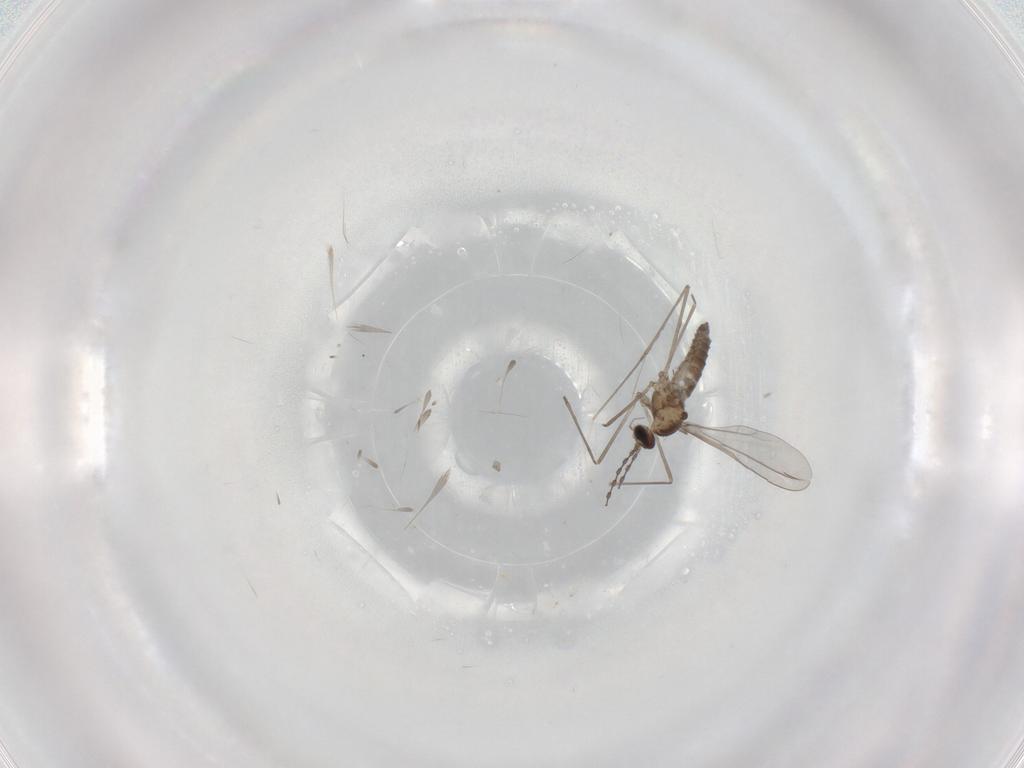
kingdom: Animalia
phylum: Arthropoda
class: Insecta
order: Diptera
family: Cecidomyiidae
